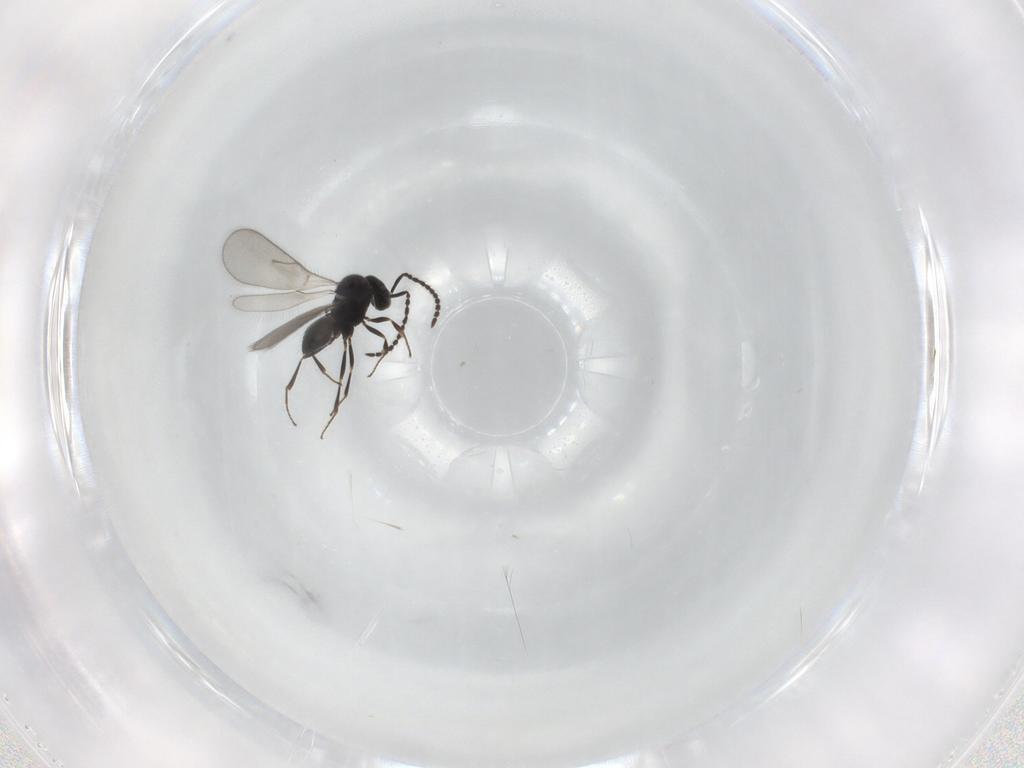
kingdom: Animalia
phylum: Arthropoda
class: Insecta
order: Hymenoptera
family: Scelionidae
